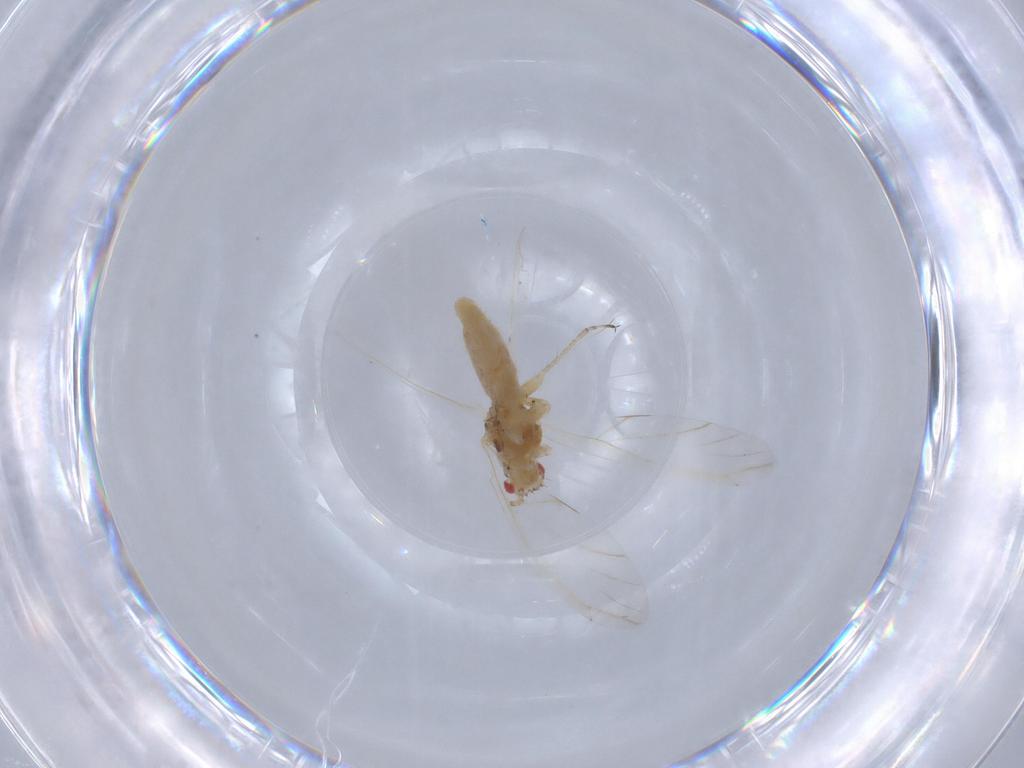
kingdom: Animalia
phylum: Arthropoda
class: Insecta
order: Hemiptera
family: Aphididae
